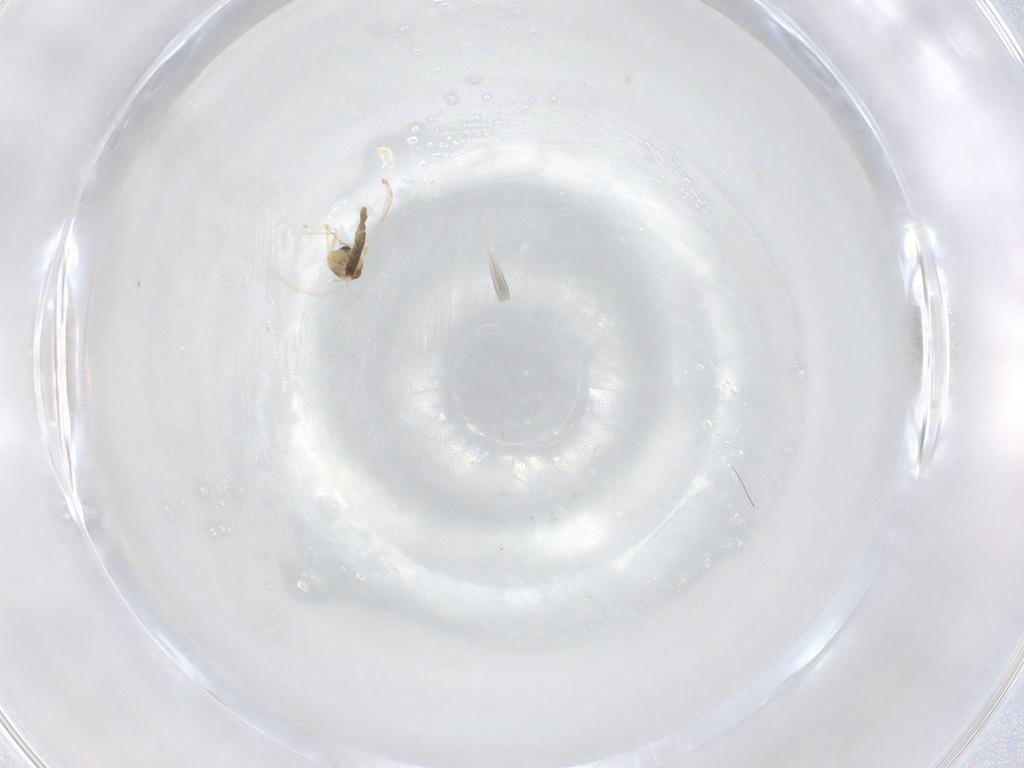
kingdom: Animalia
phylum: Arthropoda
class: Insecta
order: Diptera
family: Chironomidae
